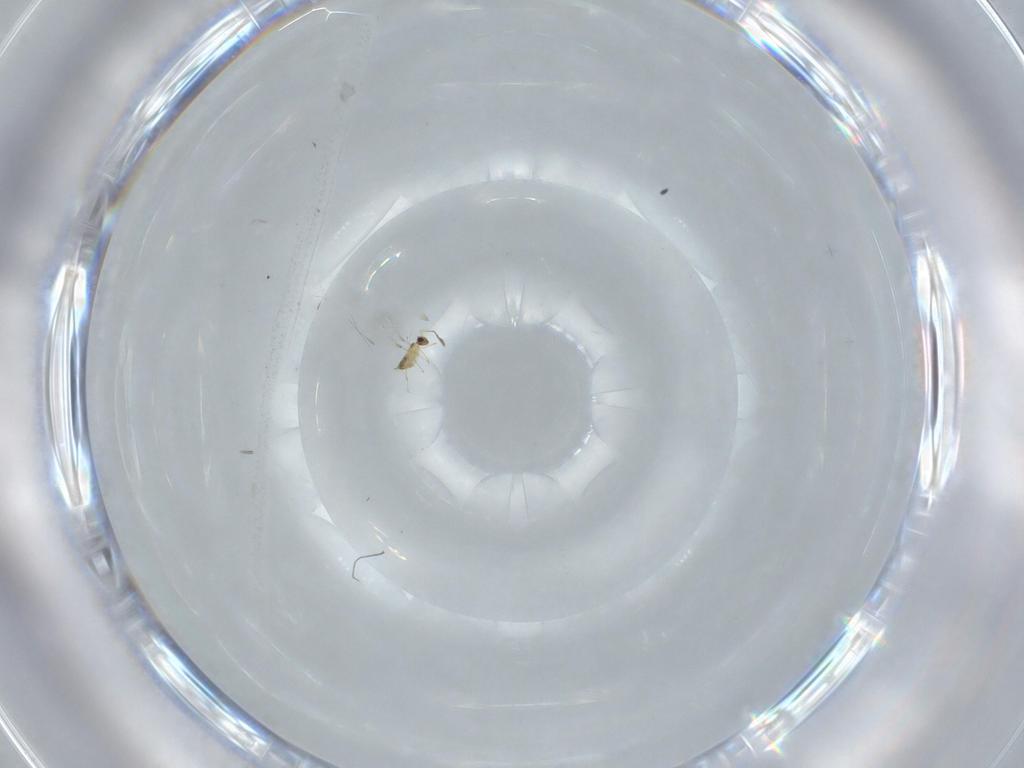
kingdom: Animalia
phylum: Arthropoda
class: Insecta
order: Hymenoptera
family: Mymaridae
